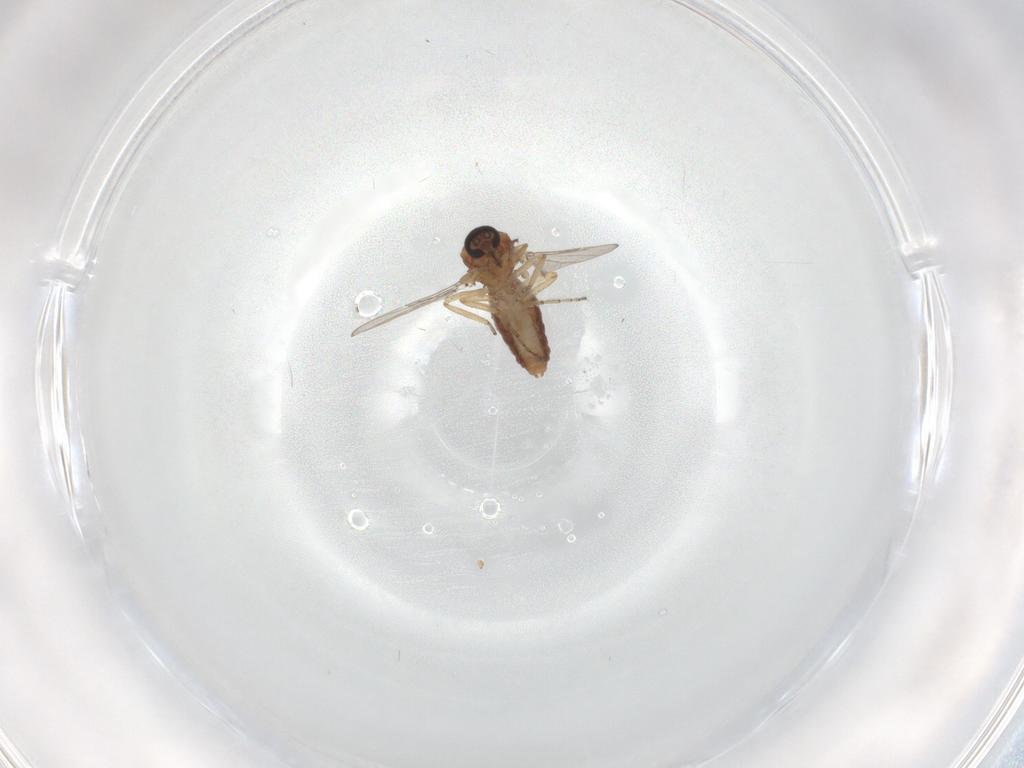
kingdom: Animalia
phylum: Arthropoda
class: Insecta
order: Diptera
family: Ceratopogonidae
